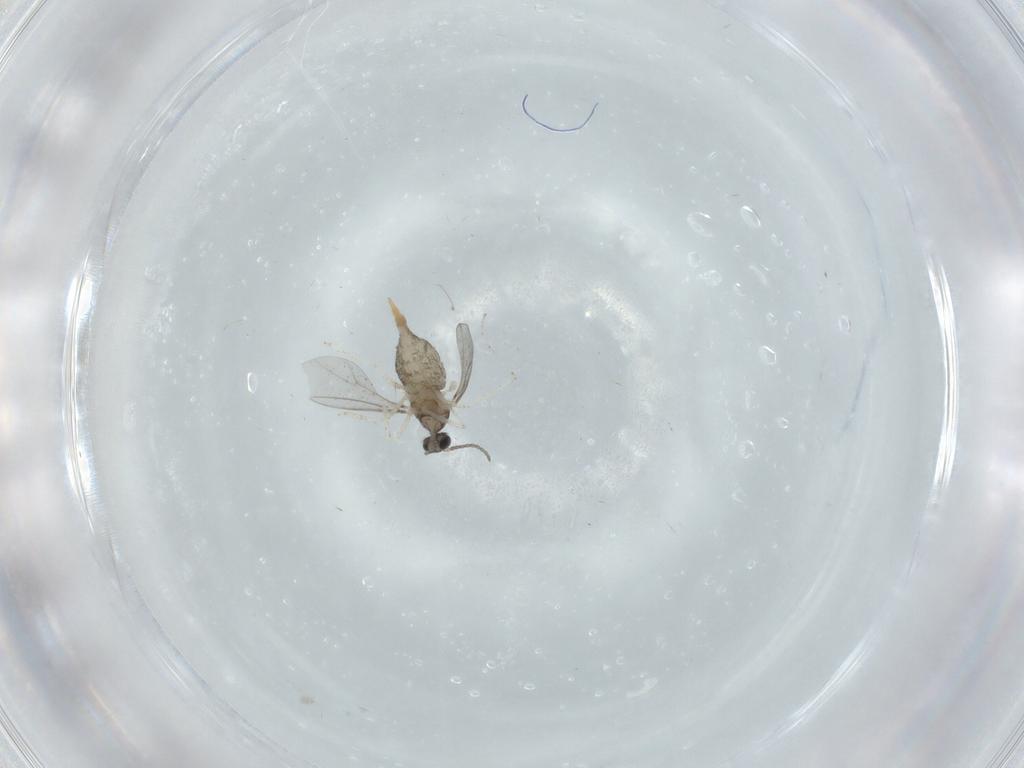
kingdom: Animalia
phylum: Arthropoda
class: Insecta
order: Diptera
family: Cecidomyiidae
